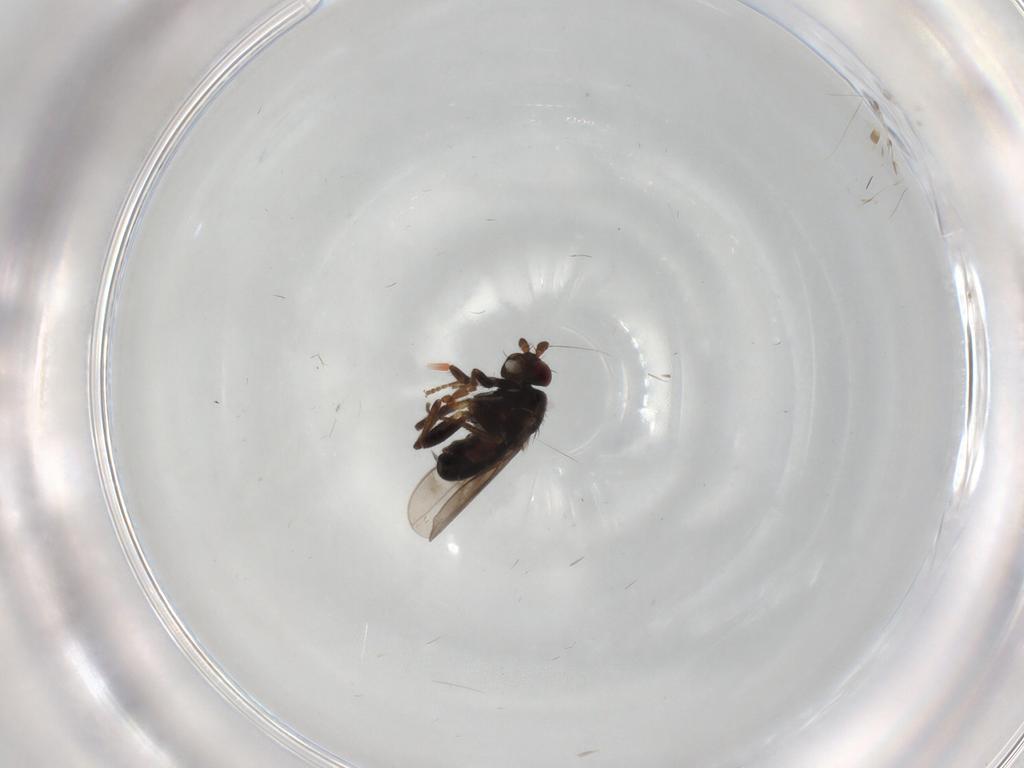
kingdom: Animalia
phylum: Arthropoda
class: Insecta
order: Diptera
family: Sphaeroceridae
